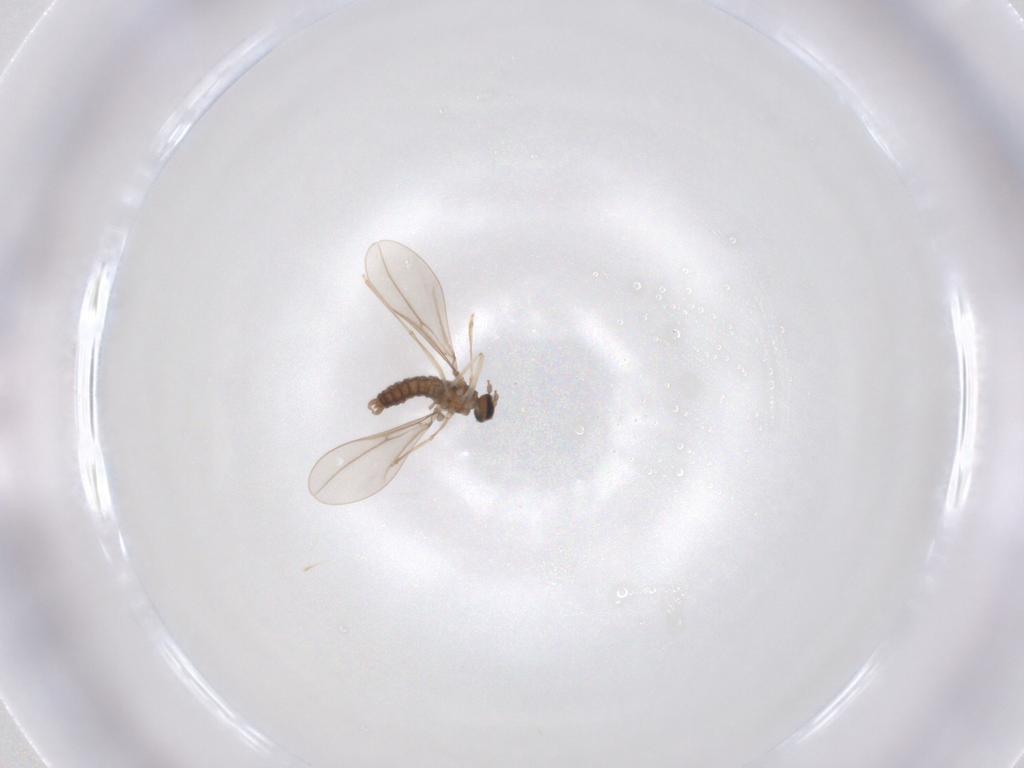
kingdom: Animalia
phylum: Arthropoda
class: Insecta
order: Diptera
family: Cecidomyiidae
